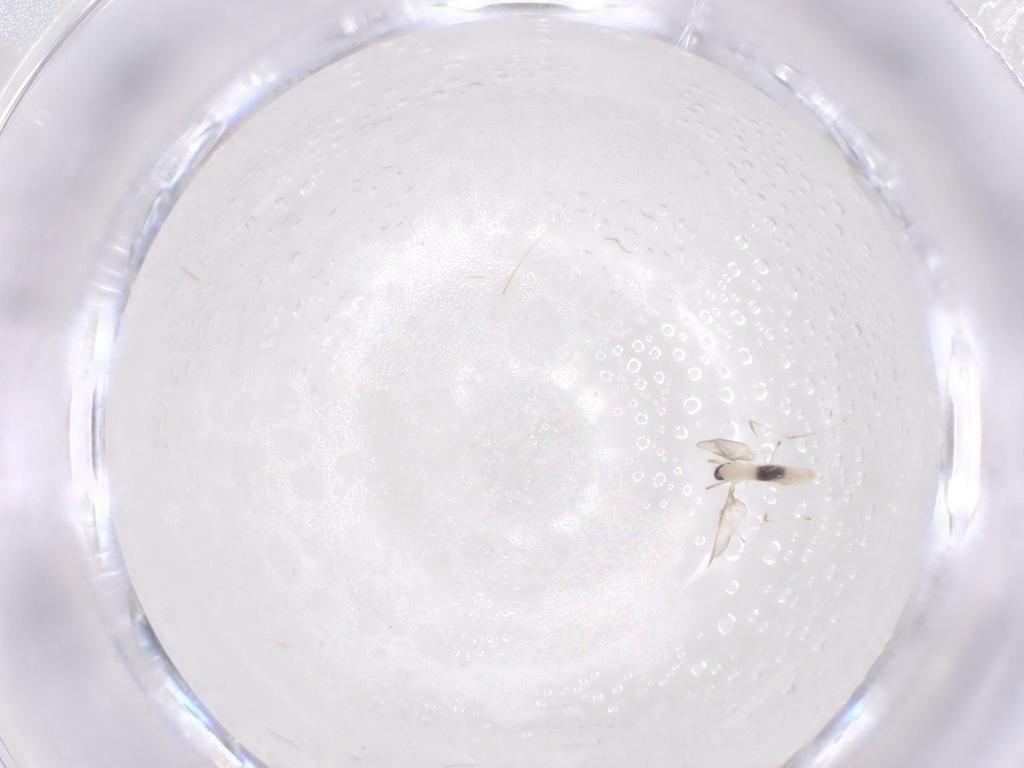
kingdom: Animalia
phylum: Arthropoda
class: Insecta
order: Diptera
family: Cecidomyiidae
